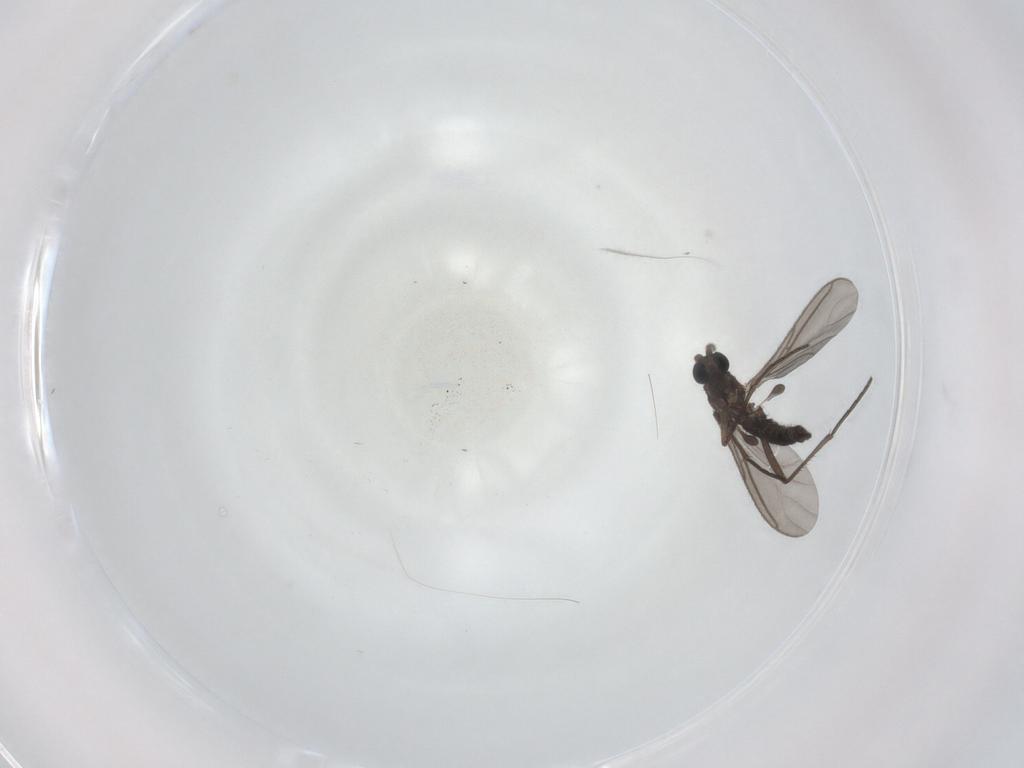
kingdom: Animalia
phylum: Arthropoda
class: Insecta
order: Diptera
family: Sciaridae
